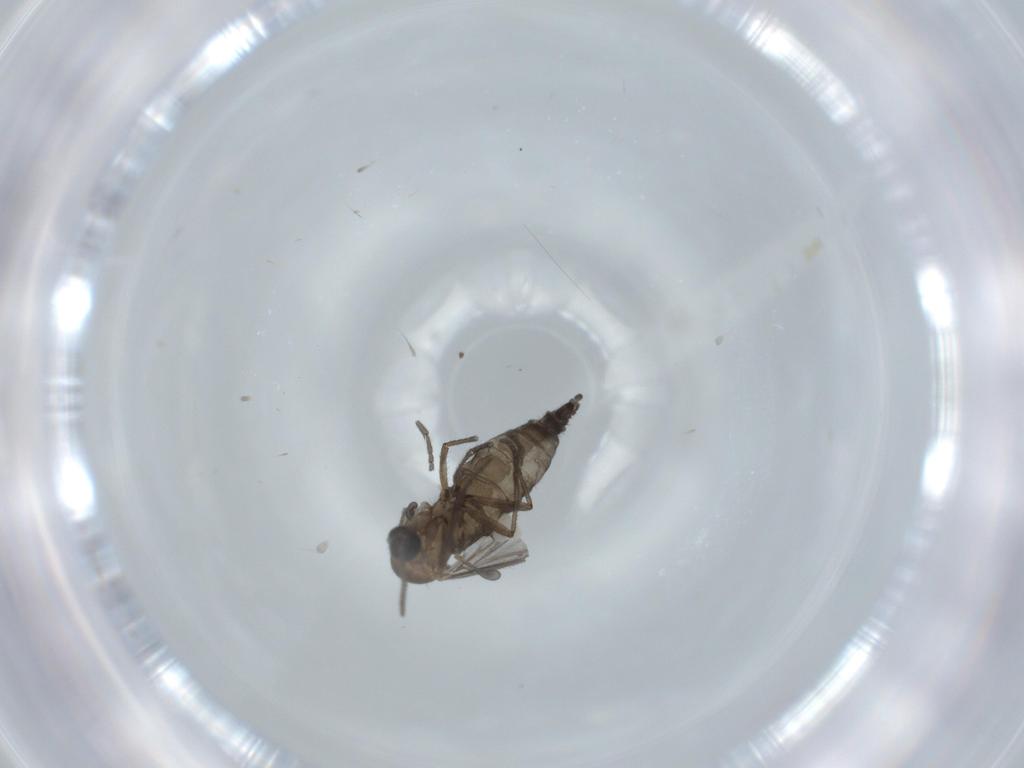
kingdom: Animalia
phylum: Arthropoda
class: Insecta
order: Diptera
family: Sciaridae
